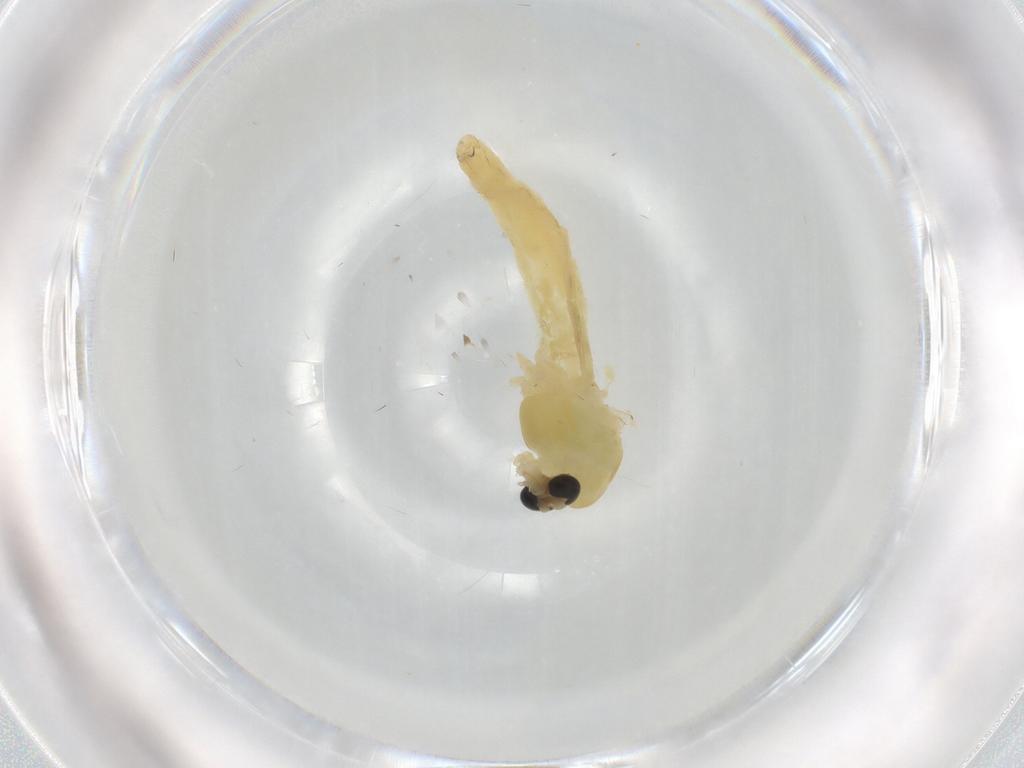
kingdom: Animalia
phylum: Arthropoda
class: Insecta
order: Diptera
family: Chironomidae
